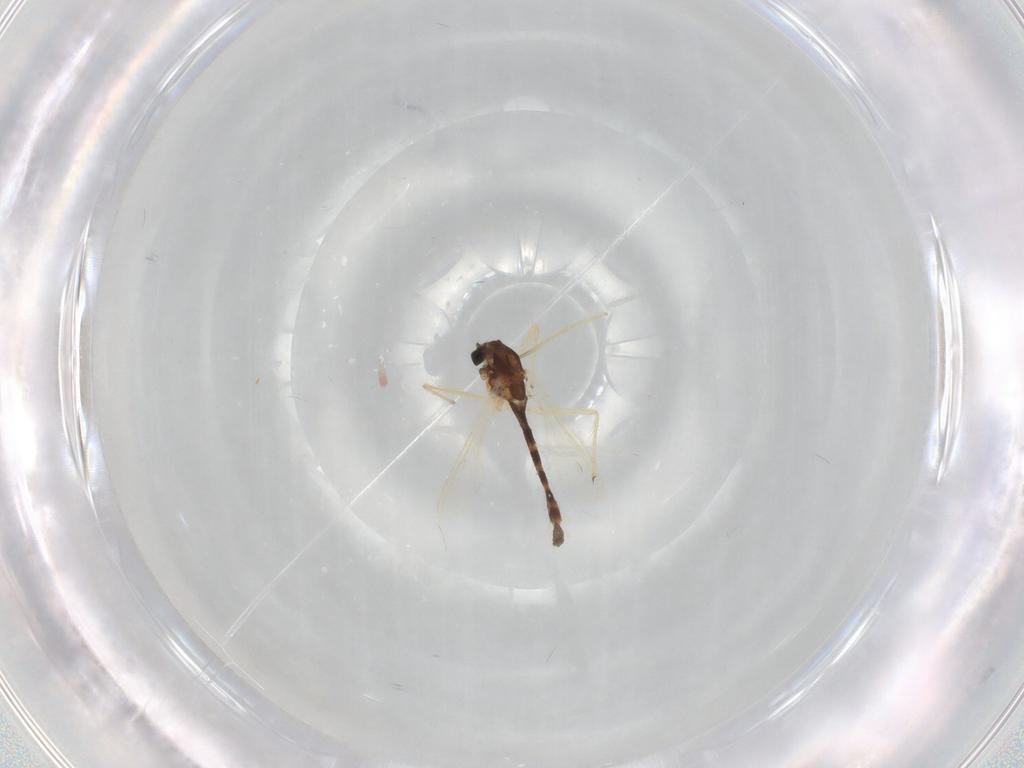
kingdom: Animalia
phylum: Arthropoda
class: Insecta
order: Diptera
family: Chironomidae
